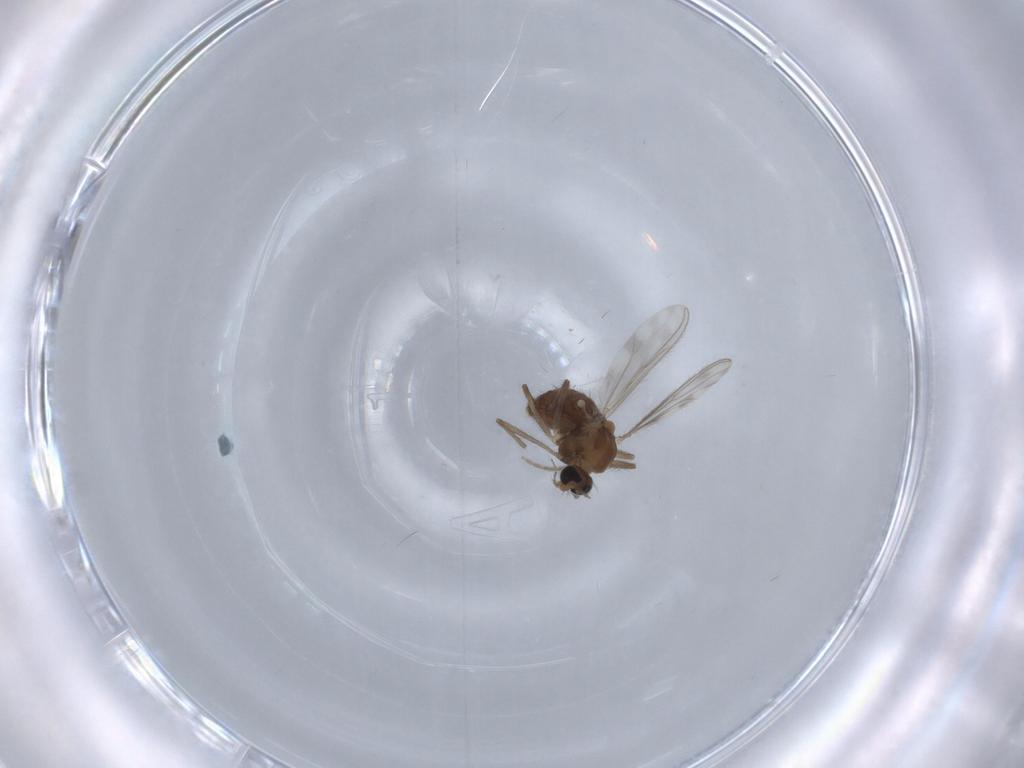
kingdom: Animalia
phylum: Arthropoda
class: Insecta
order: Diptera
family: Chironomidae
